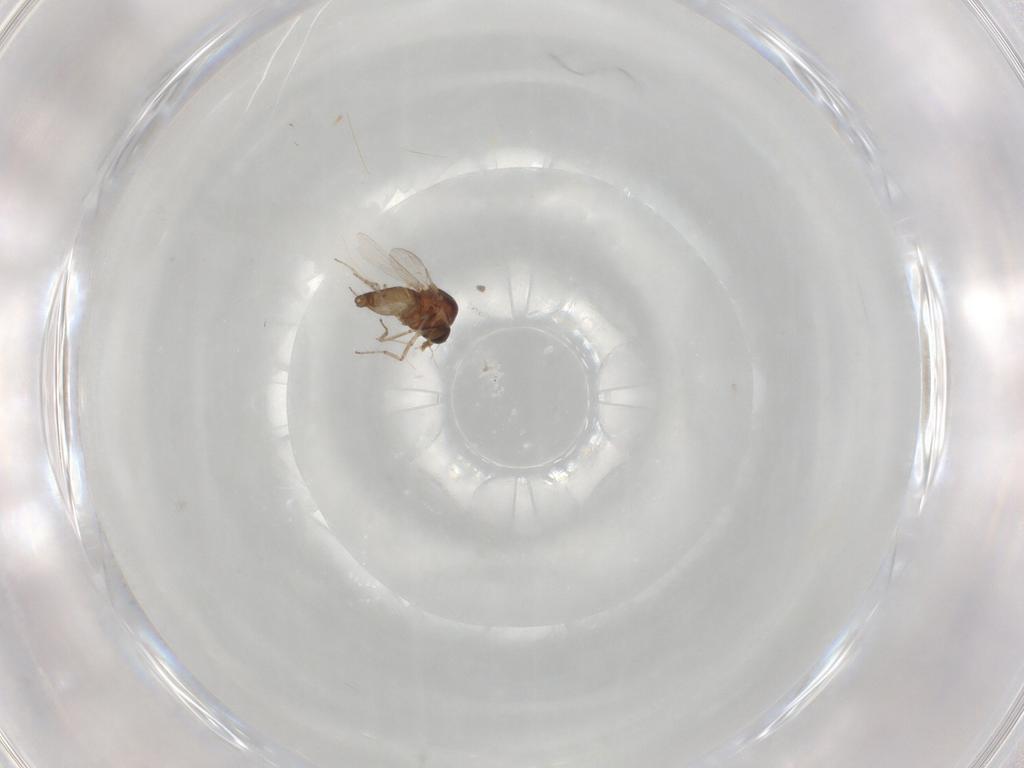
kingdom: Animalia
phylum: Arthropoda
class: Insecta
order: Diptera
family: Ceratopogonidae
